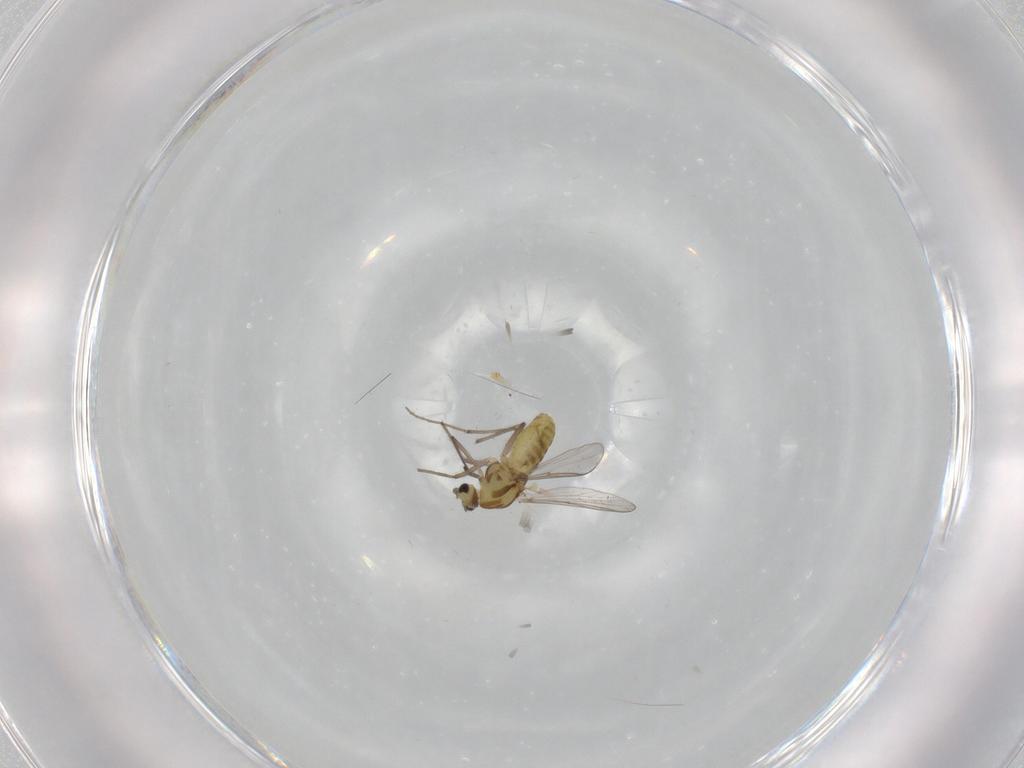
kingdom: Animalia
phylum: Arthropoda
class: Insecta
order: Diptera
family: Chironomidae
